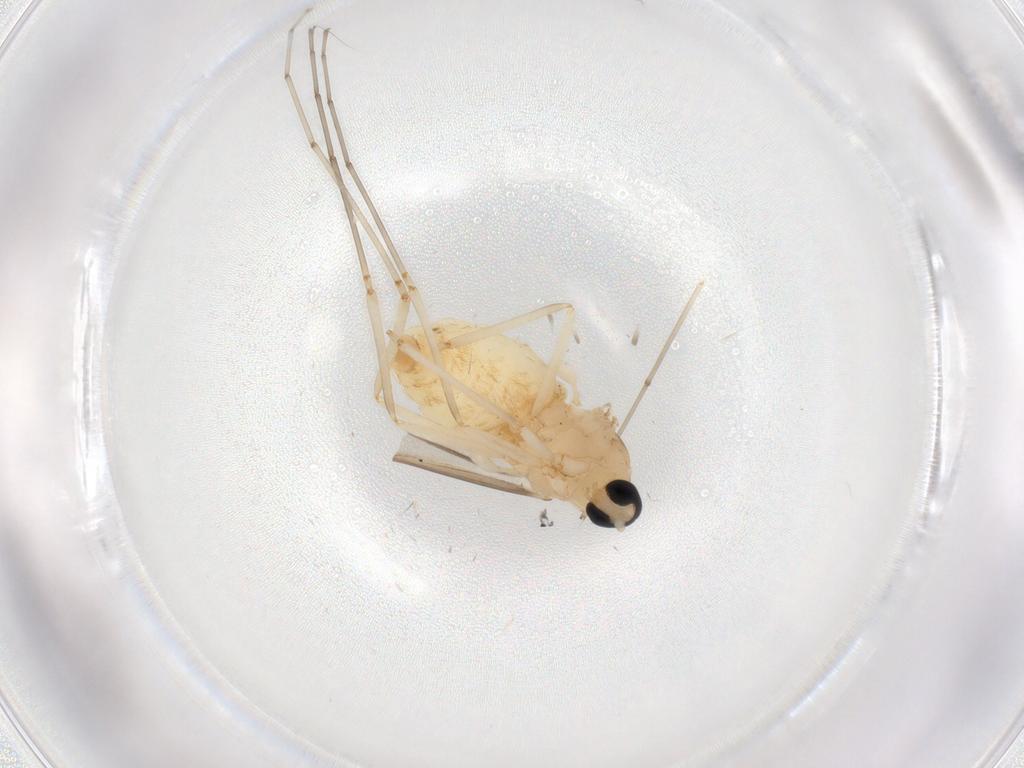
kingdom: Animalia
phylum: Arthropoda
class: Insecta
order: Diptera
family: Cecidomyiidae
